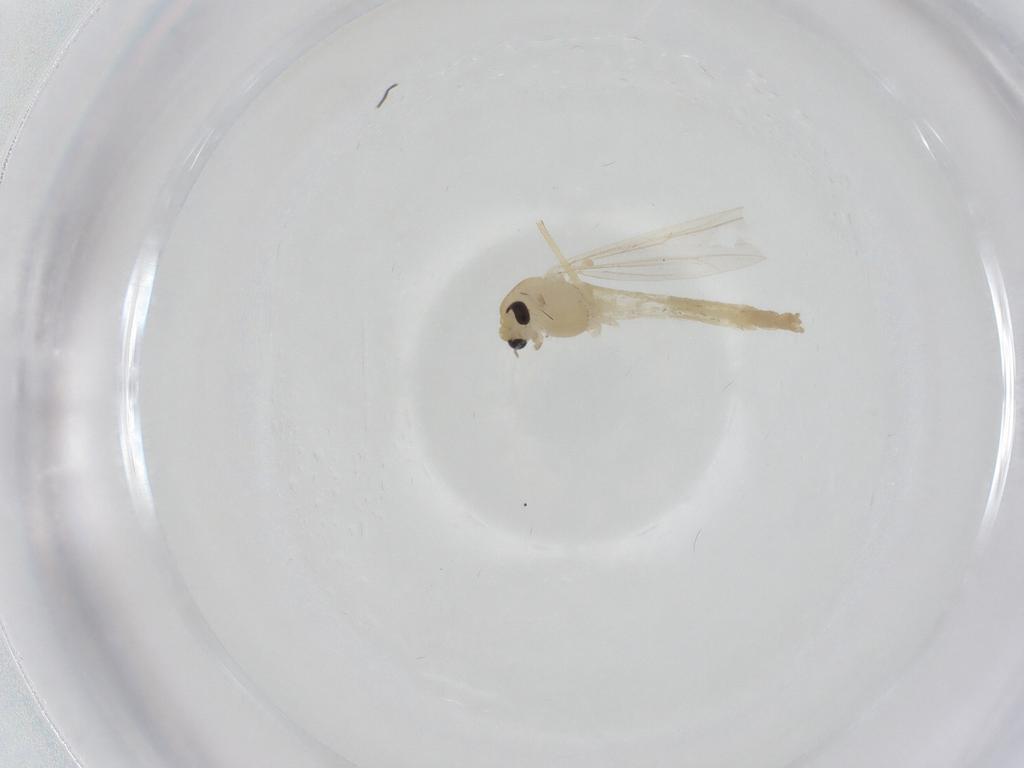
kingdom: Animalia
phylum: Arthropoda
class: Insecta
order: Diptera
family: Chironomidae
